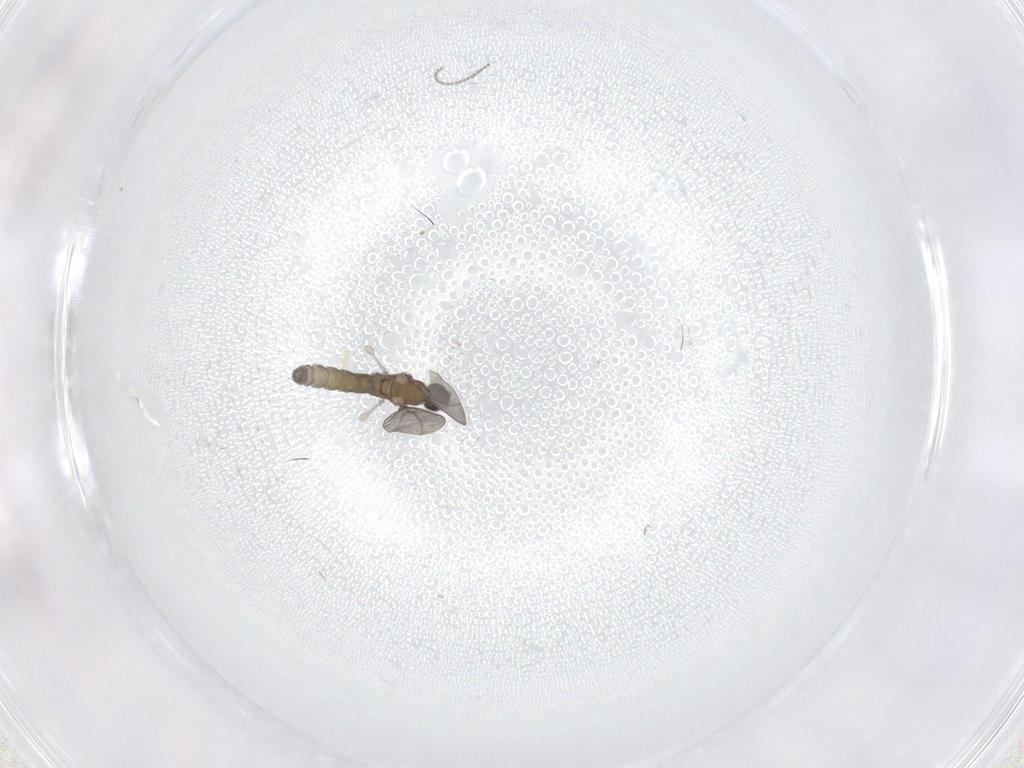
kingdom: Animalia
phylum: Arthropoda
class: Insecta
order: Diptera
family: Cecidomyiidae
